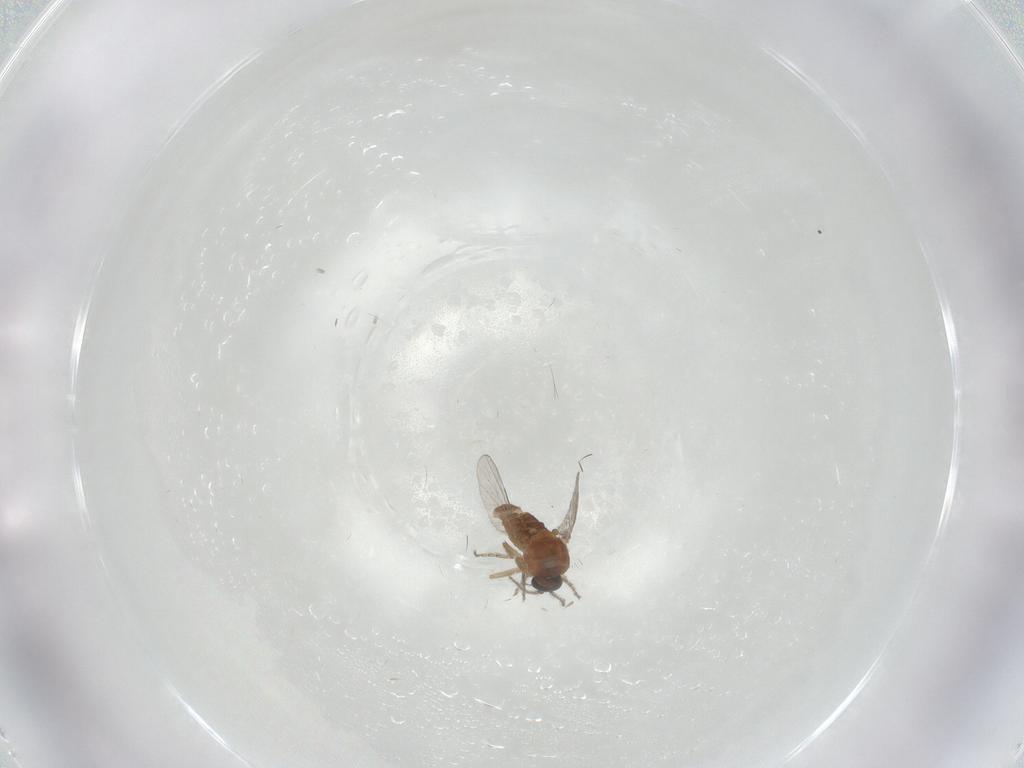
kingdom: Animalia
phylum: Arthropoda
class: Insecta
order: Diptera
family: Ceratopogonidae
